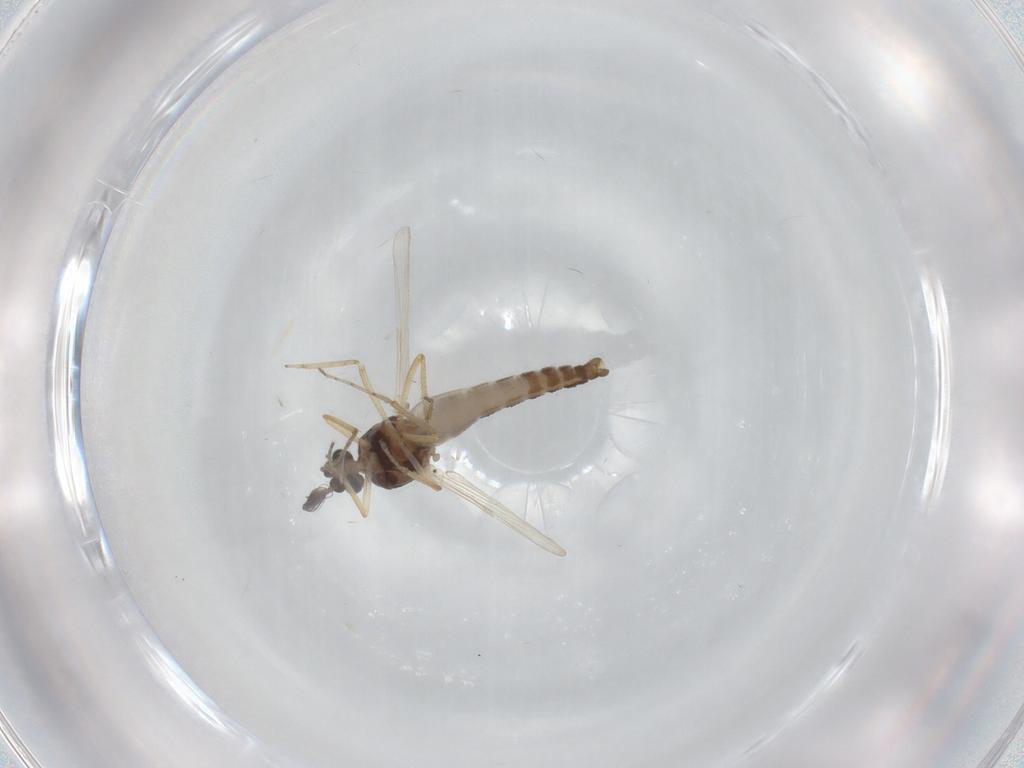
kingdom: Animalia
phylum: Arthropoda
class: Insecta
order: Diptera
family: Ceratopogonidae
